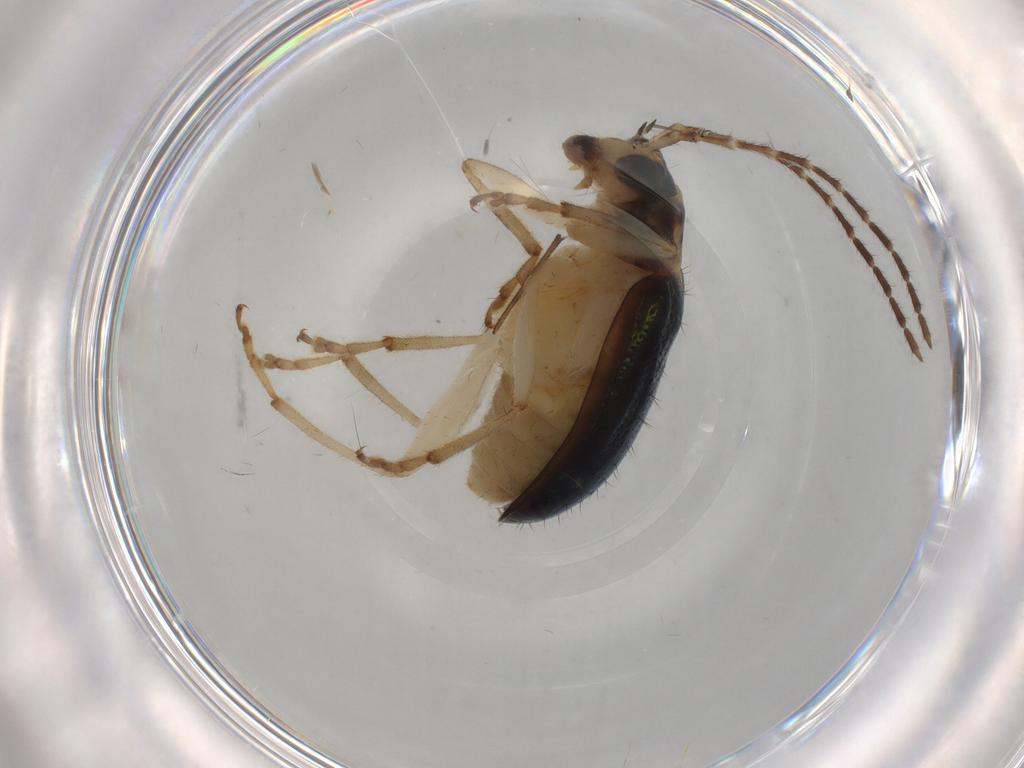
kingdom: Animalia
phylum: Arthropoda
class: Insecta
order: Coleoptera
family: Chrysomelidae
